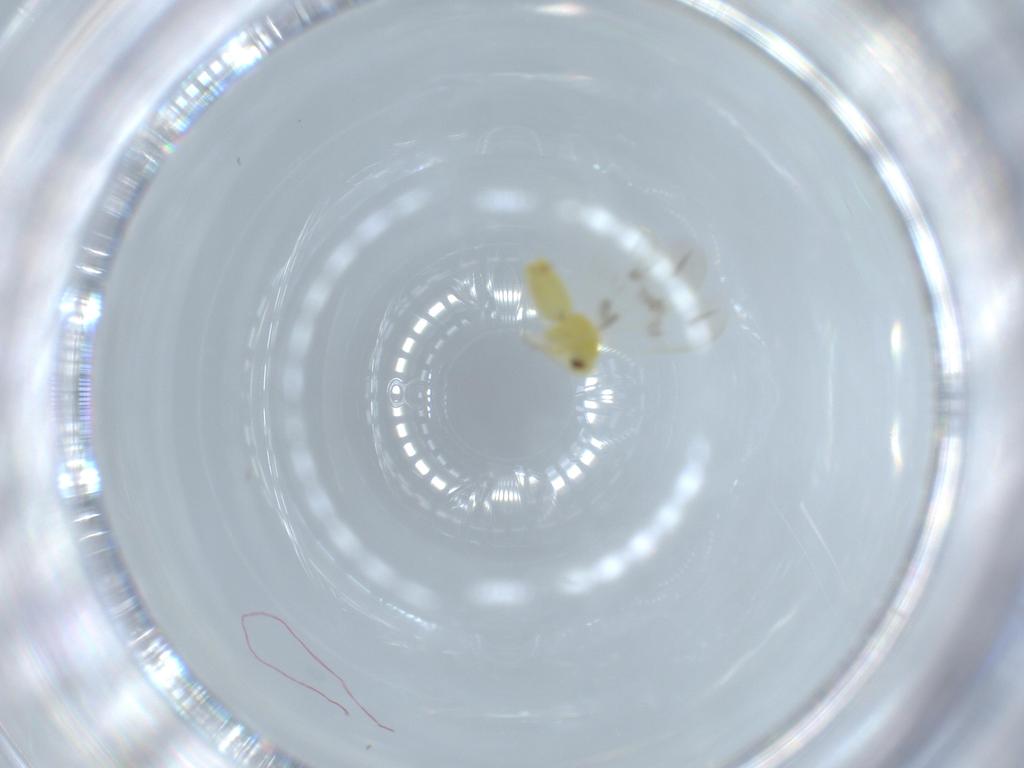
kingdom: Animalia
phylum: Arthropoda
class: Insecta
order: Hemiptera
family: Aleyrodidae
